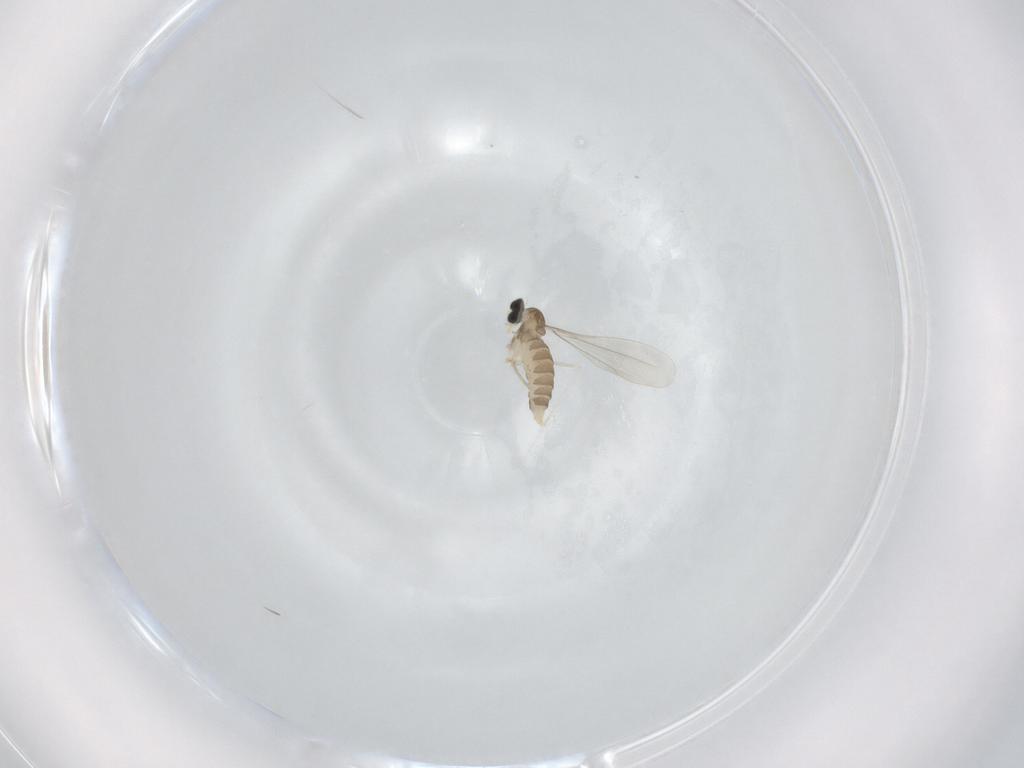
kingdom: Animalia
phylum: Arthropoda
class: Insecta
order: Diptera
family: Cecidomyiidae
